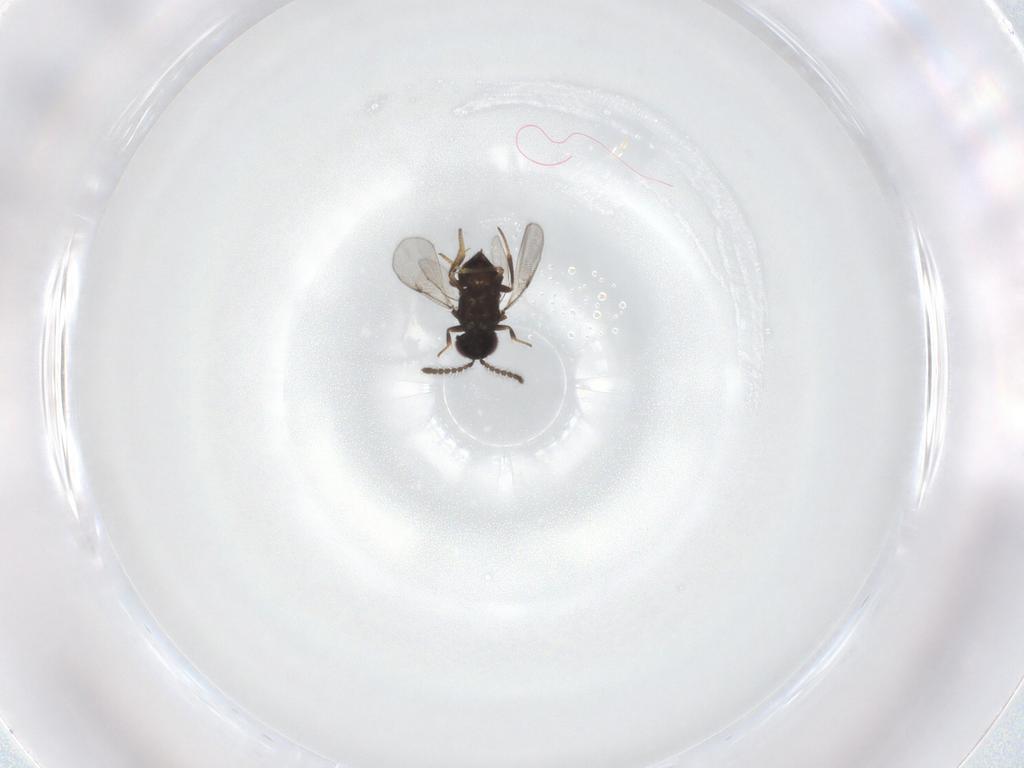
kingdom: Animalia
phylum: Arthropoda
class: Insecta
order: Hymenoptera
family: Encyrtidae
